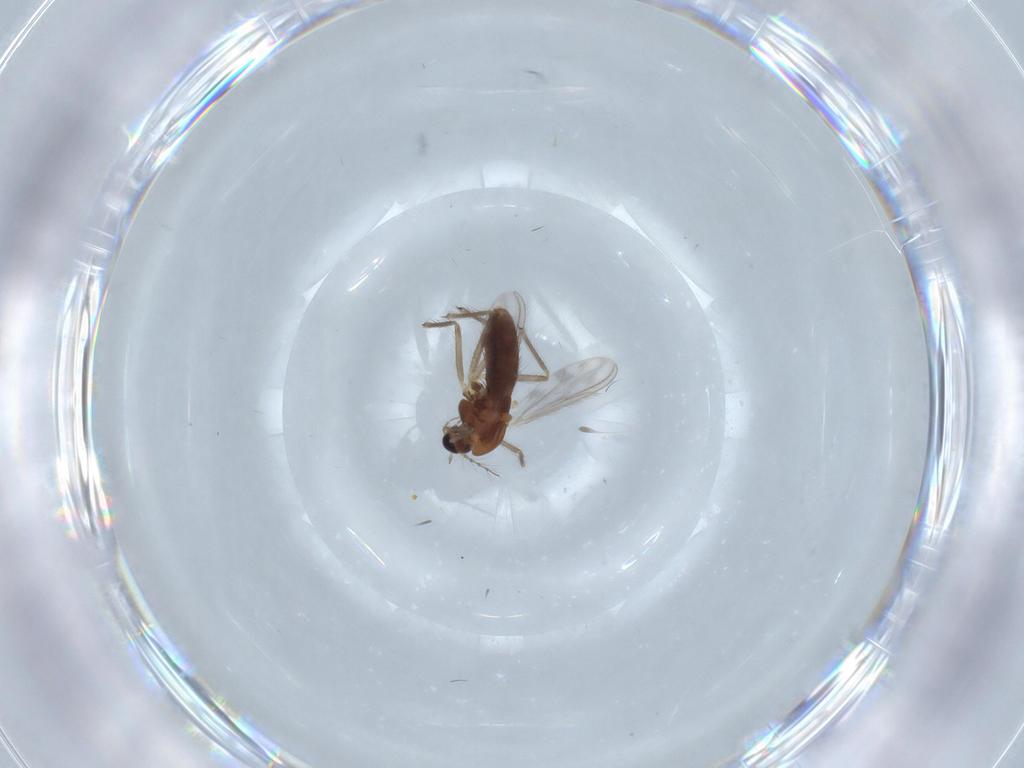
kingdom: Animalia
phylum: Arthropoda
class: Insecta
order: Diptera
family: Chironomidae
